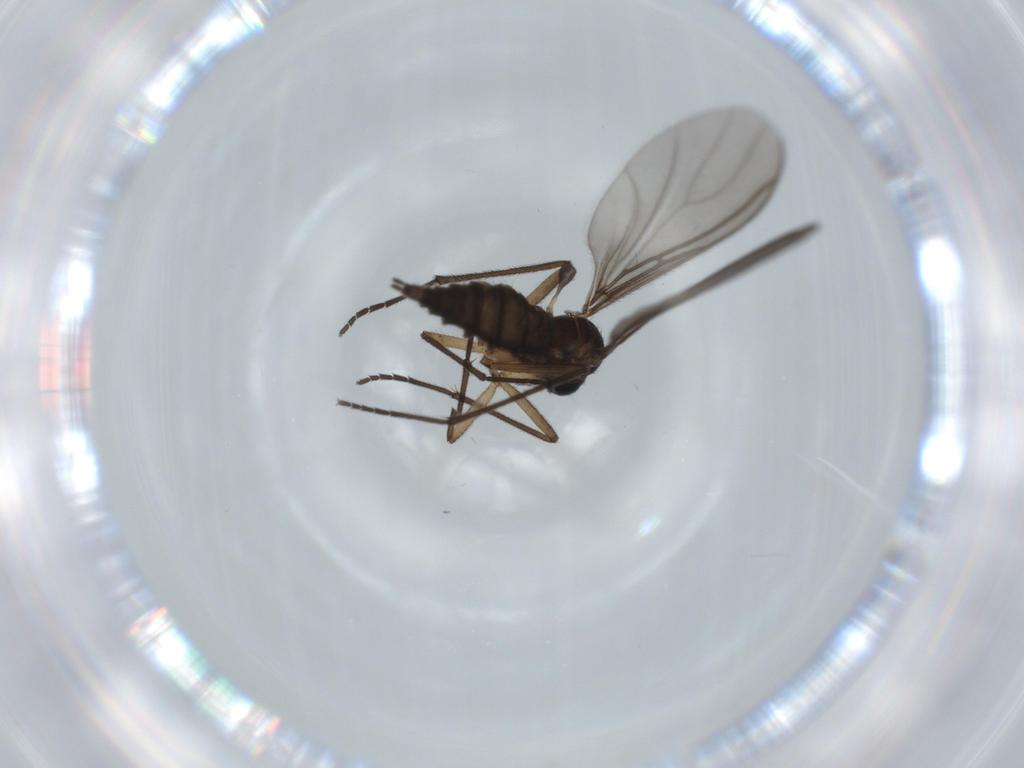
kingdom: Animalia
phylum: Arthropoda
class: Insecta
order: Diptera
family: Sciaridae
